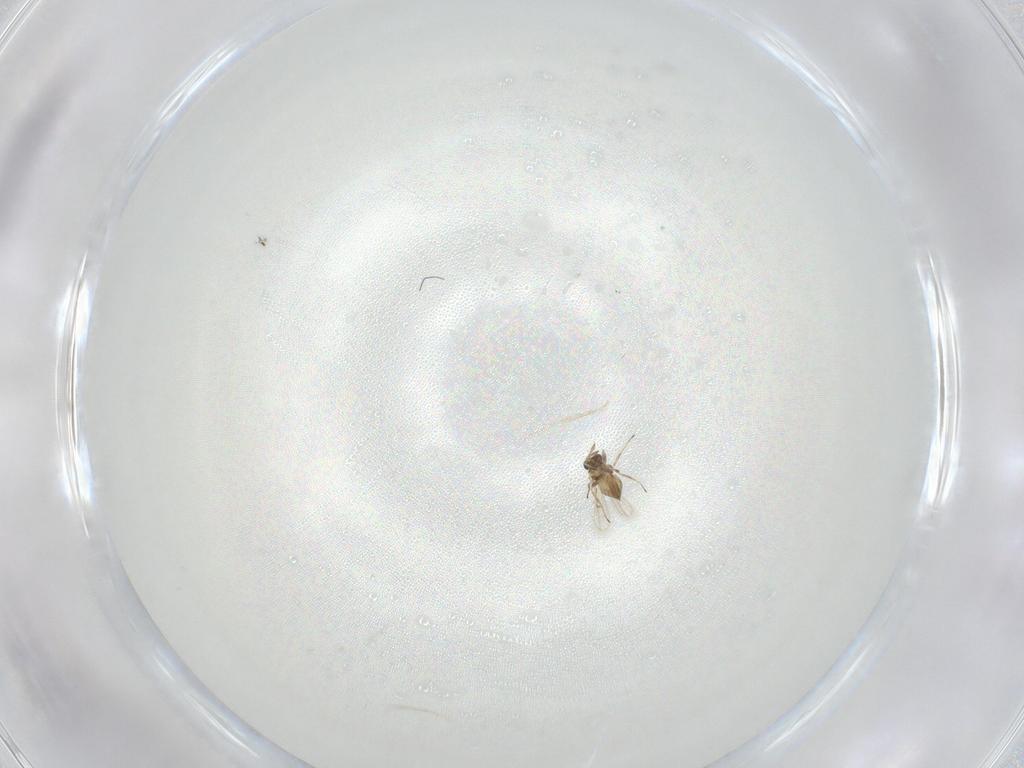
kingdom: Animalia
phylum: Arthropoda
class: Insecta
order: Hymenoptera
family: Trichogrammatidae
